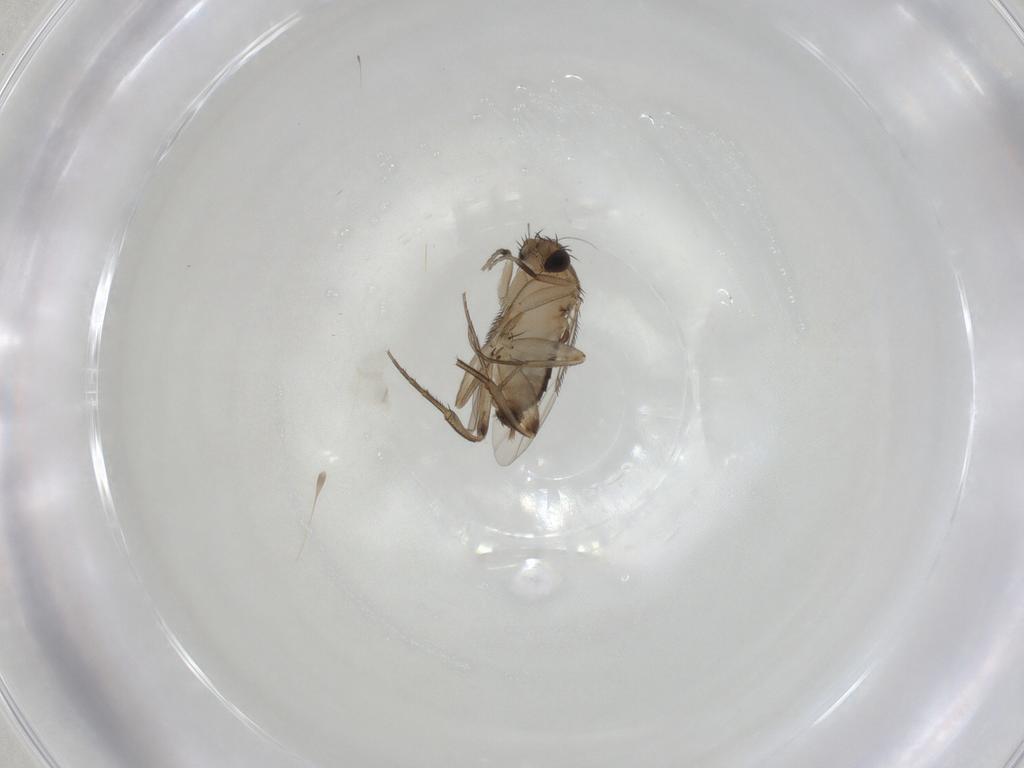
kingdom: Animalia
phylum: Arthropoda
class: Insecta
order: Diptera
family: Phoridae
